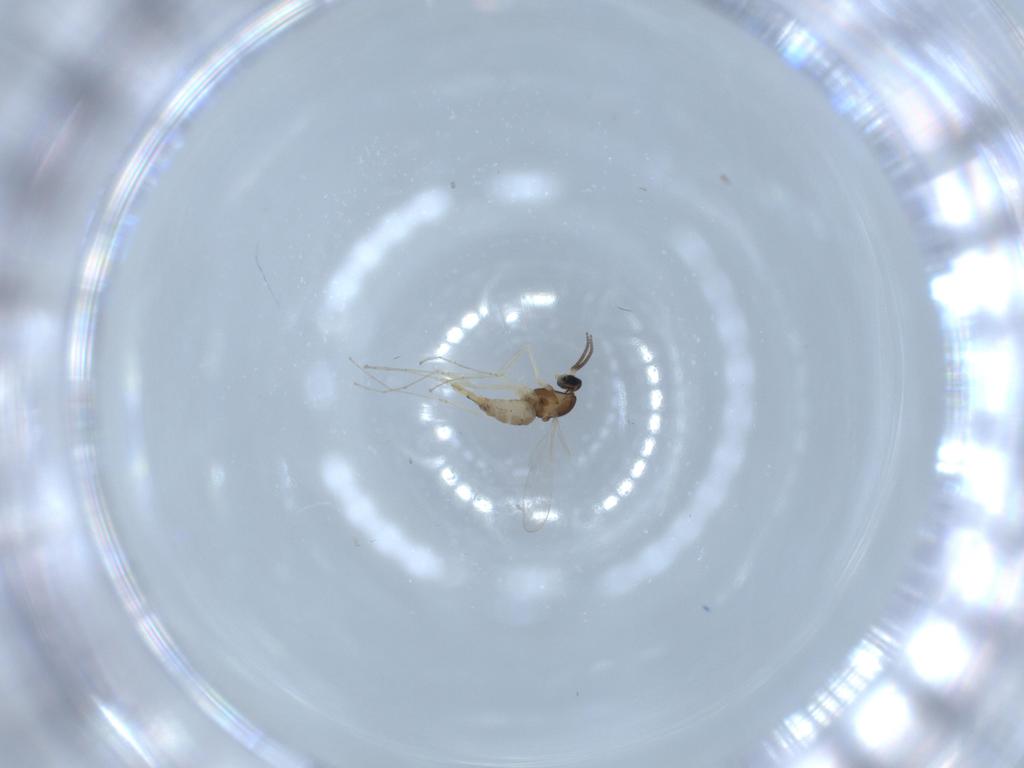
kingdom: Animalia
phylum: Arthropoda
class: Insecta
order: Diptera
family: Cecidomyiidae
